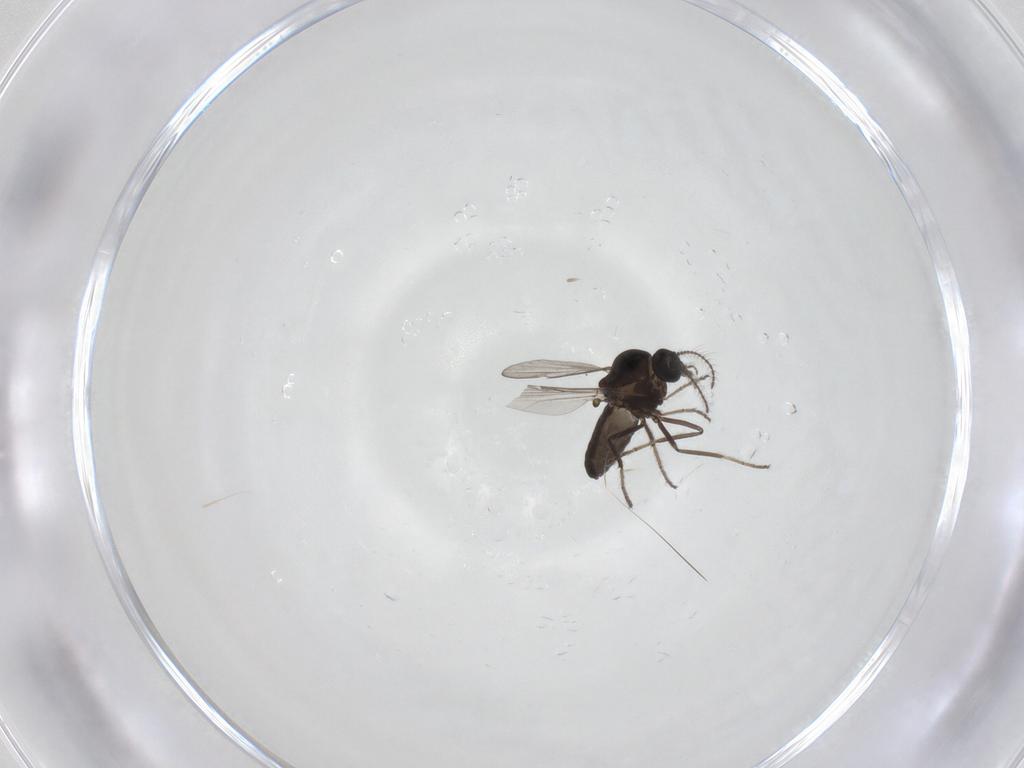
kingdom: Animalia
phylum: Arthropoda
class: Insecta
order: Diptera
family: Ceratopogonidae
